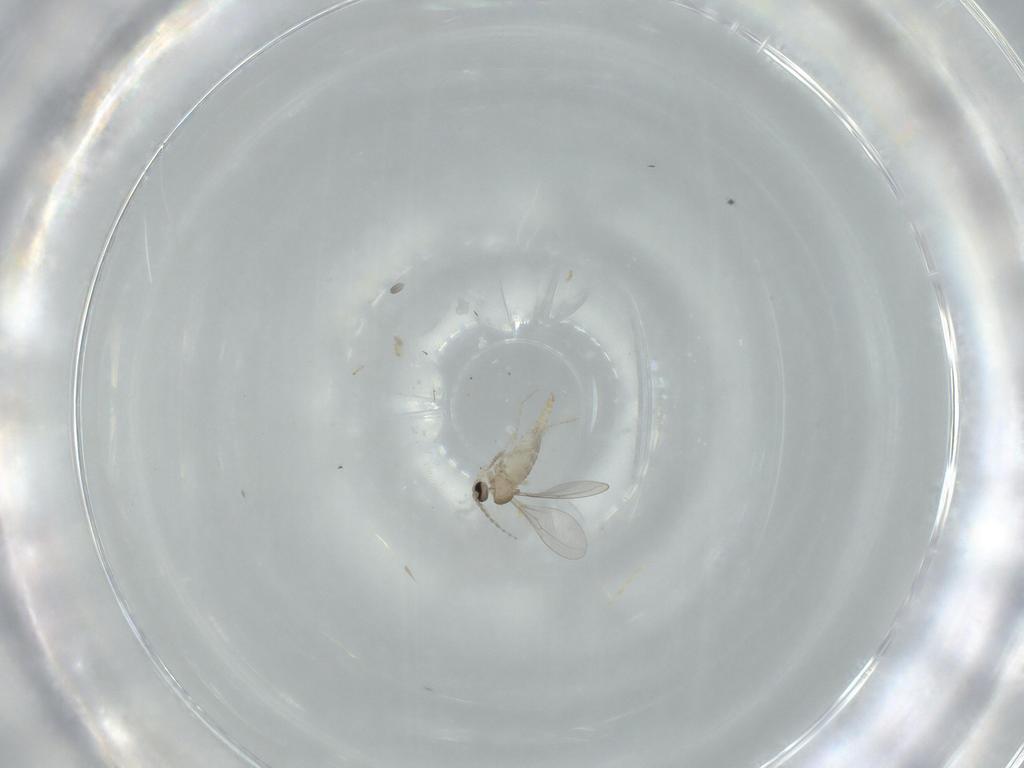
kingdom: Animalia
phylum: Arthropoda
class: Insecta
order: Diptera
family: Cecidomyiidae
